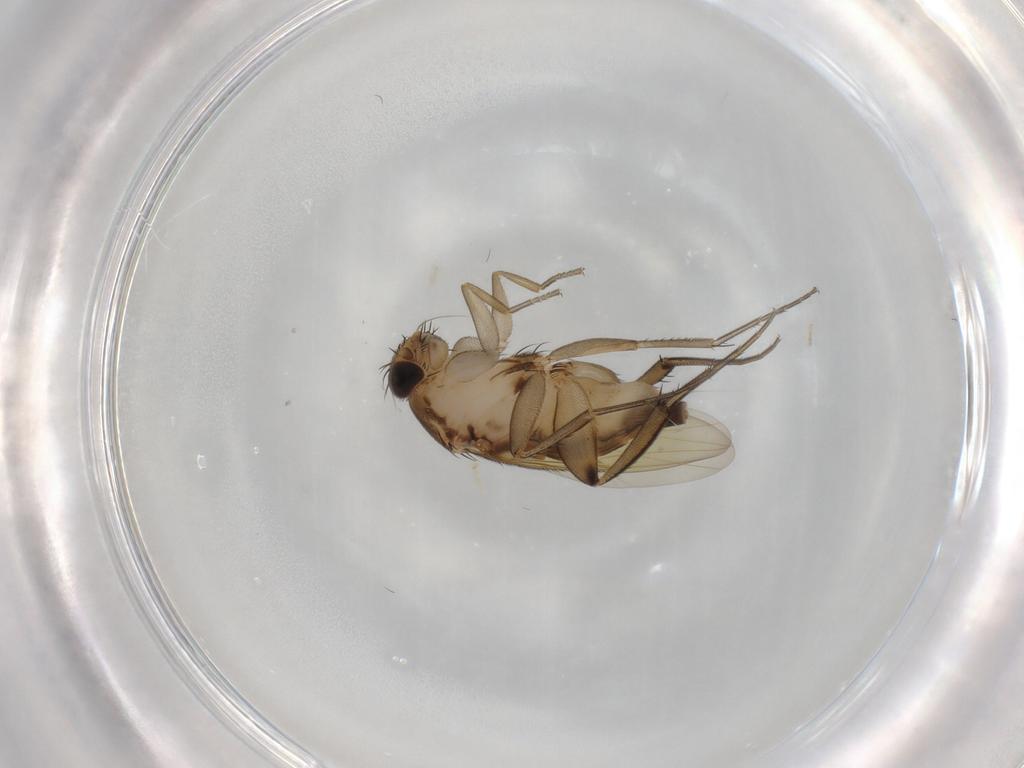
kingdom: Animalia
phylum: Arthropoda
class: Insecta
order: Diptera
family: Phoridae
